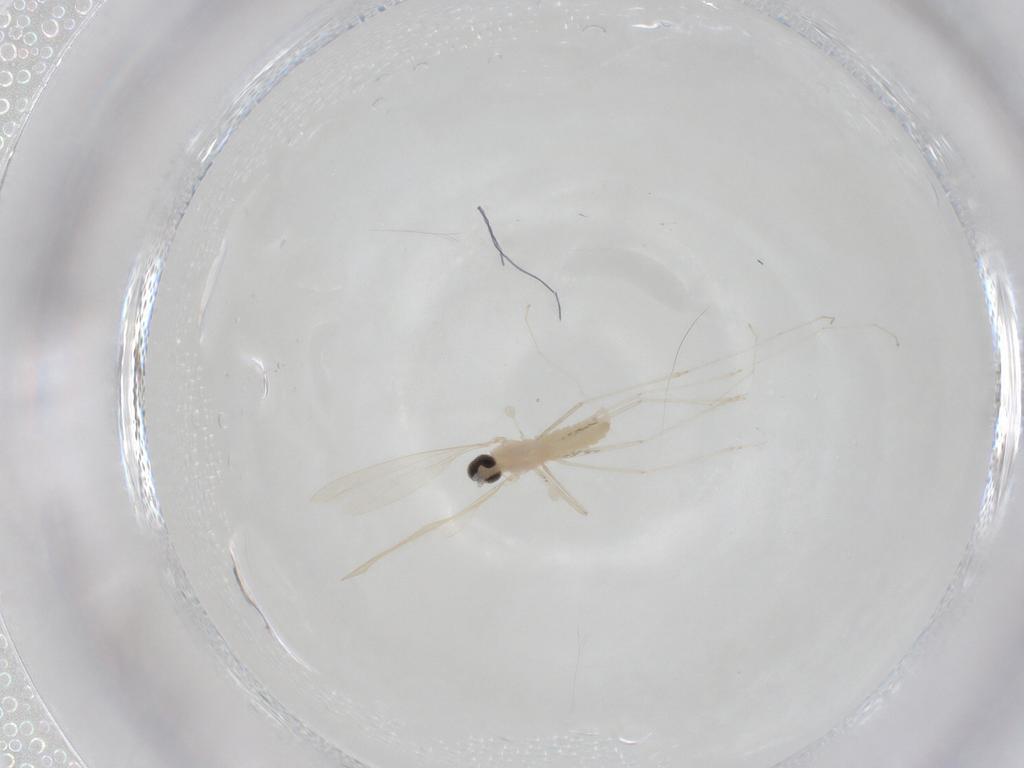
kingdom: Animalia
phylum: Arthropoda
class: Insecta
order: Diptera
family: Cecidomyiidae
